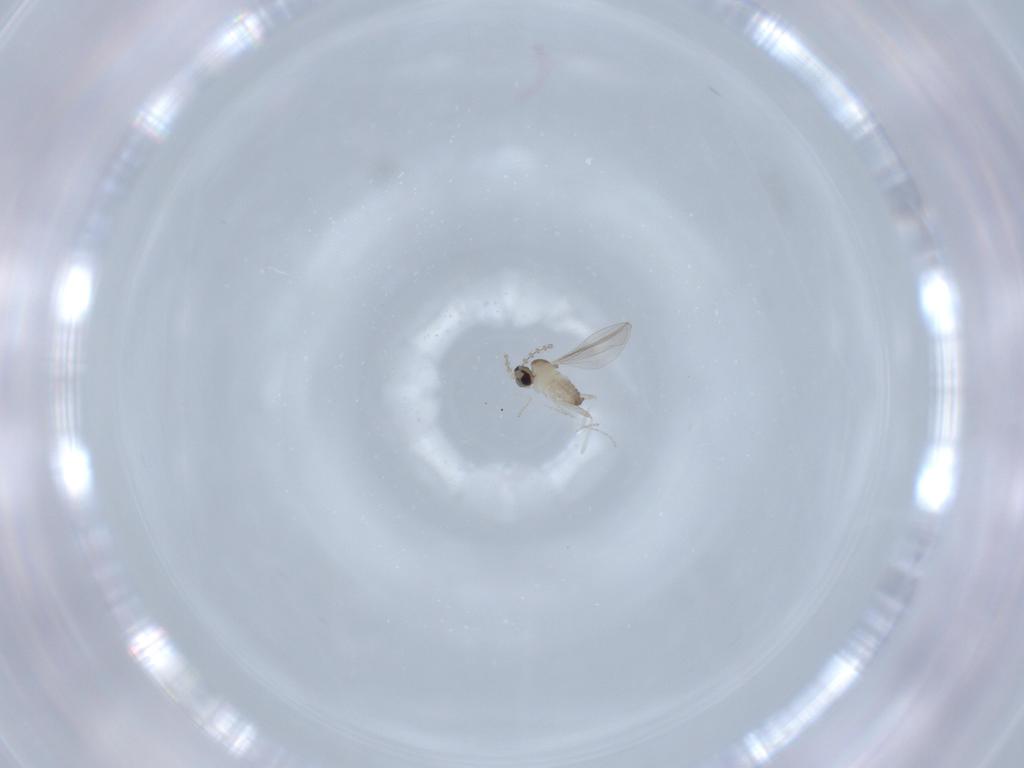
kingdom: Animalia
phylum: Arthropoda
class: Insecta
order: Diptera
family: Cecidomyiidae
